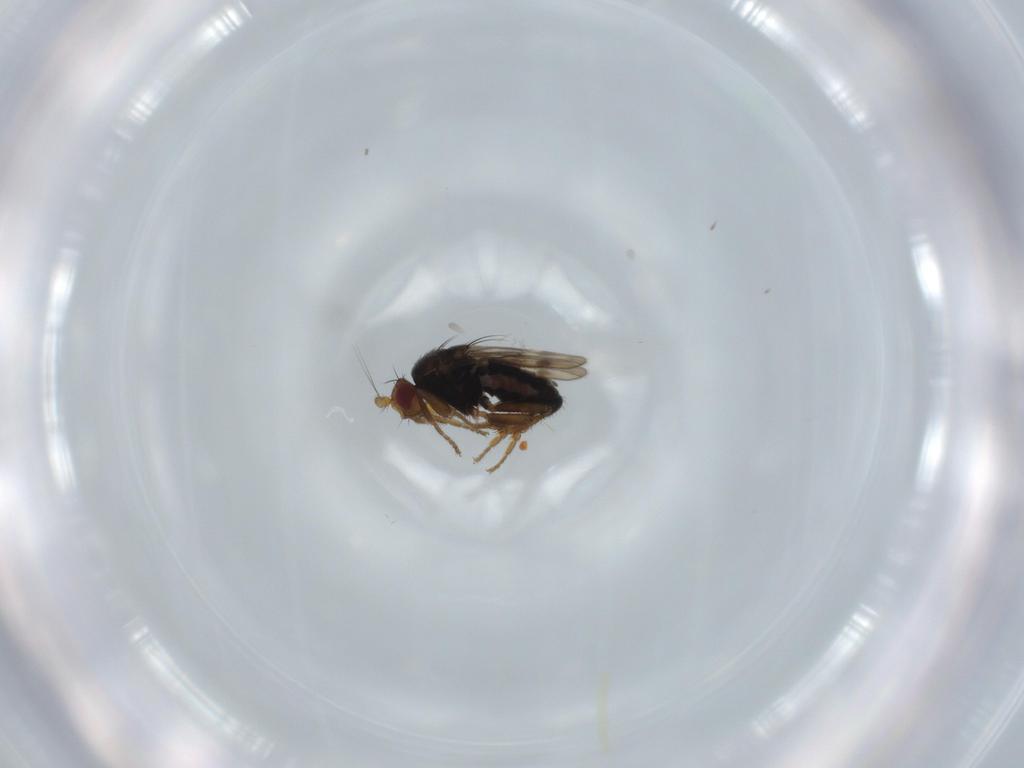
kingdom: Animalia
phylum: Arthropoda
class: Insecta
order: Diptera
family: Sphaeroceridae
